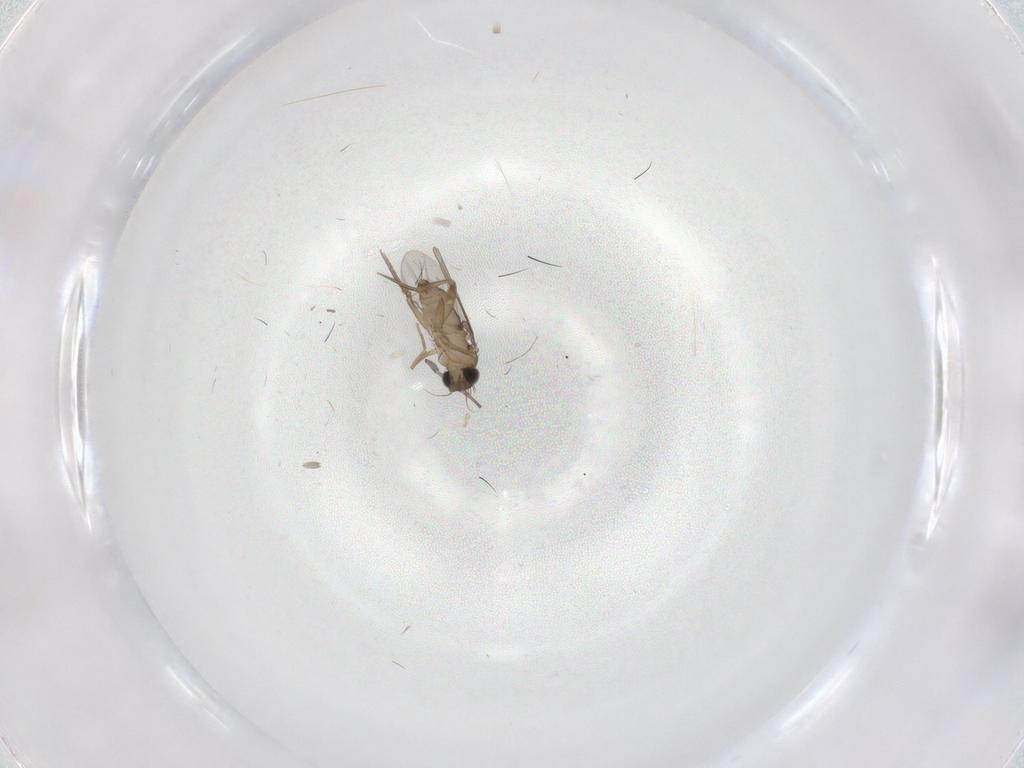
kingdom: Animalia
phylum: Arthropoda
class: Insecta
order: Diptera
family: Phoridae
